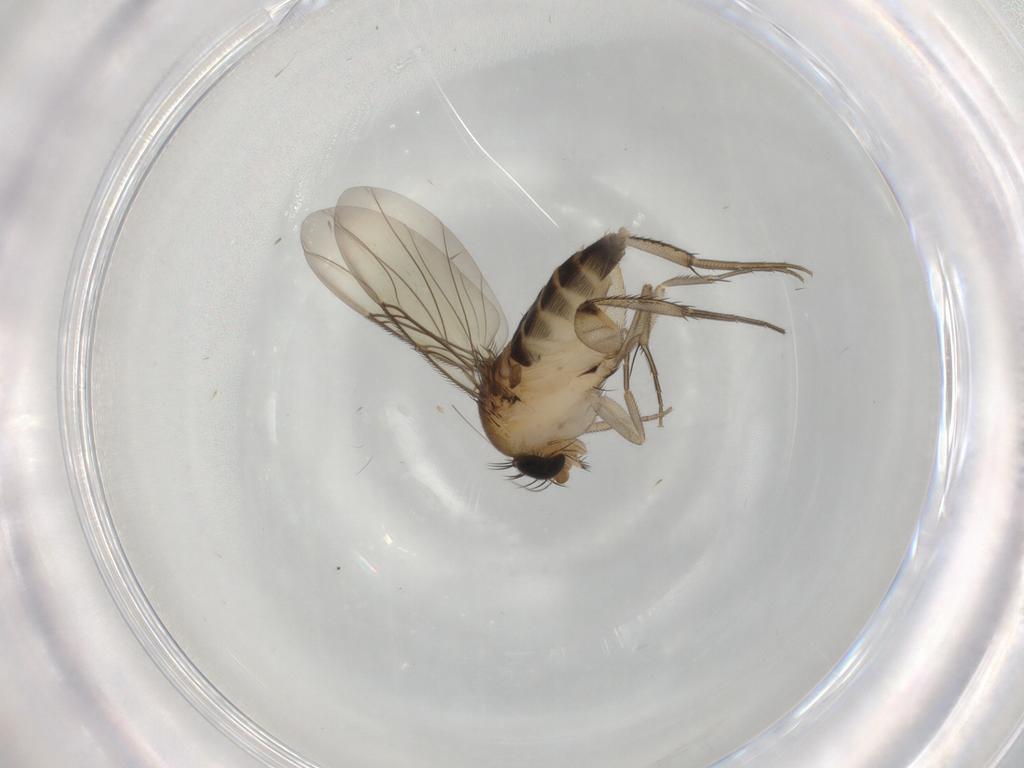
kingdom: Animalia
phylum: Arthropoda
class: Insecta
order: Diptera
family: Phoridae
